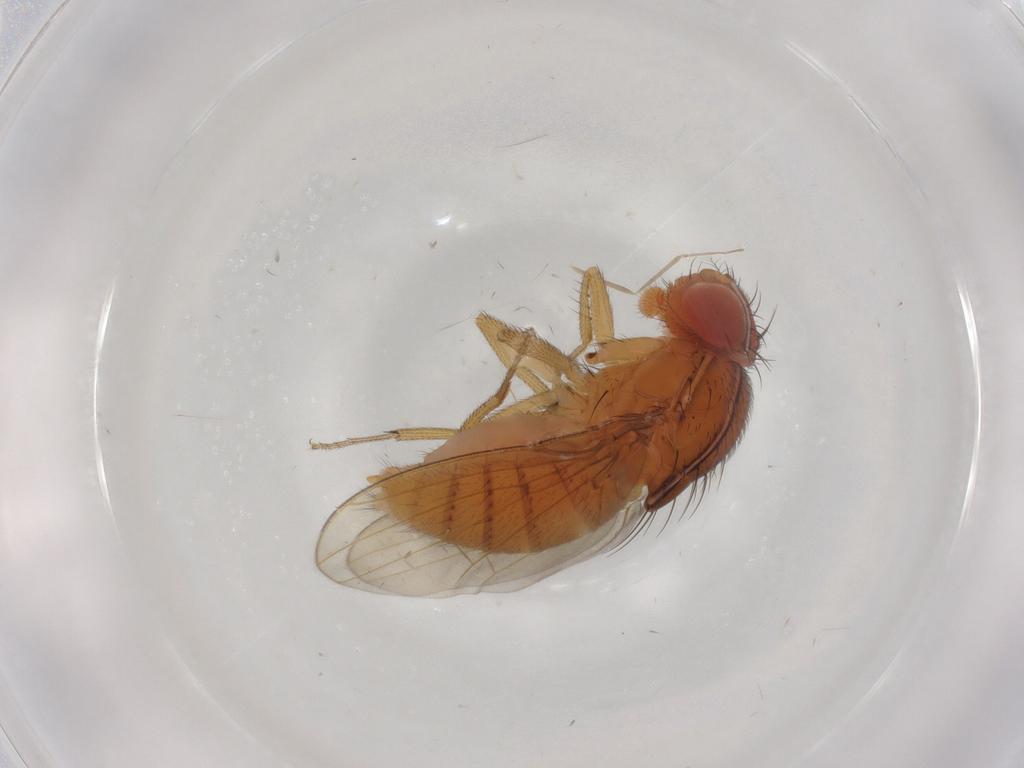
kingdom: Animalia
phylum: Arthropoda
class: Insecta
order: Diptera
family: Drosophilidae
